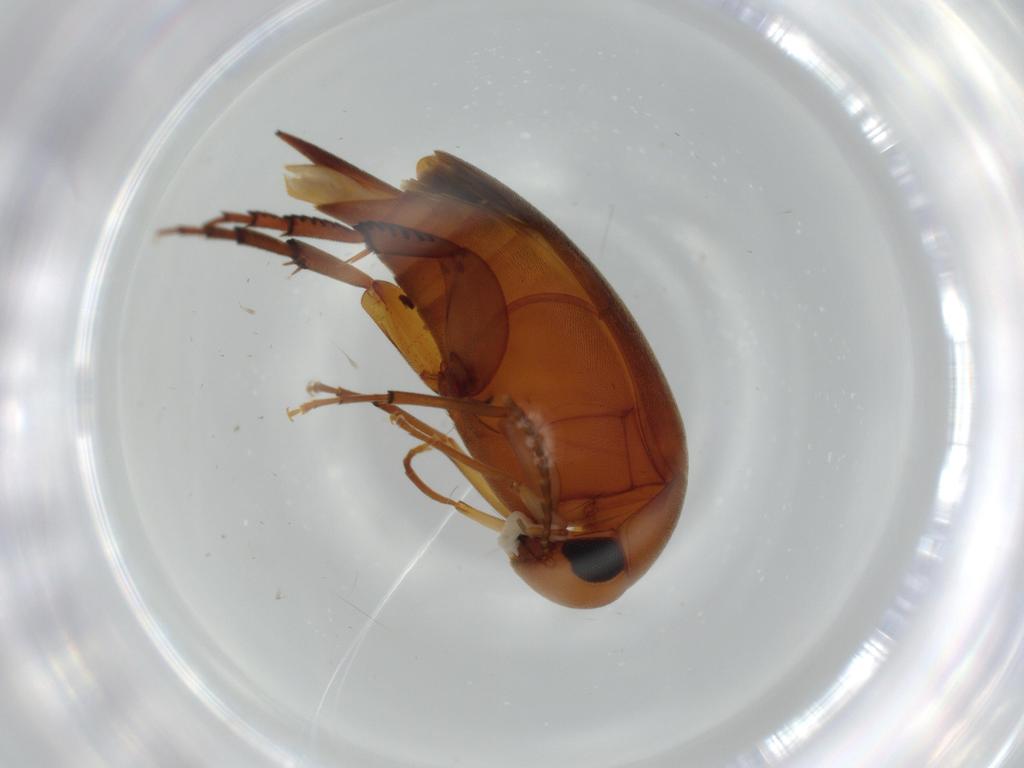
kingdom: Animalia
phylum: Arthropoda
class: Insecta
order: Coleoptera
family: Mordellidae
